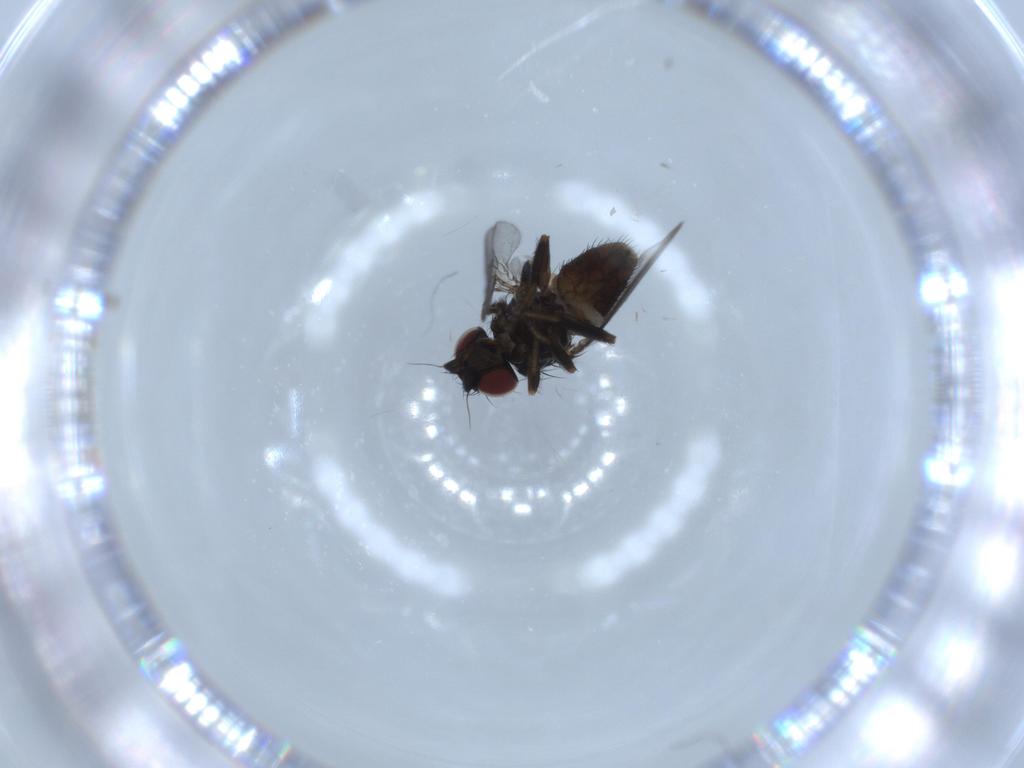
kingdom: Animalia
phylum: Arthropoda
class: Insecta
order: Diptera
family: Milichiidae
